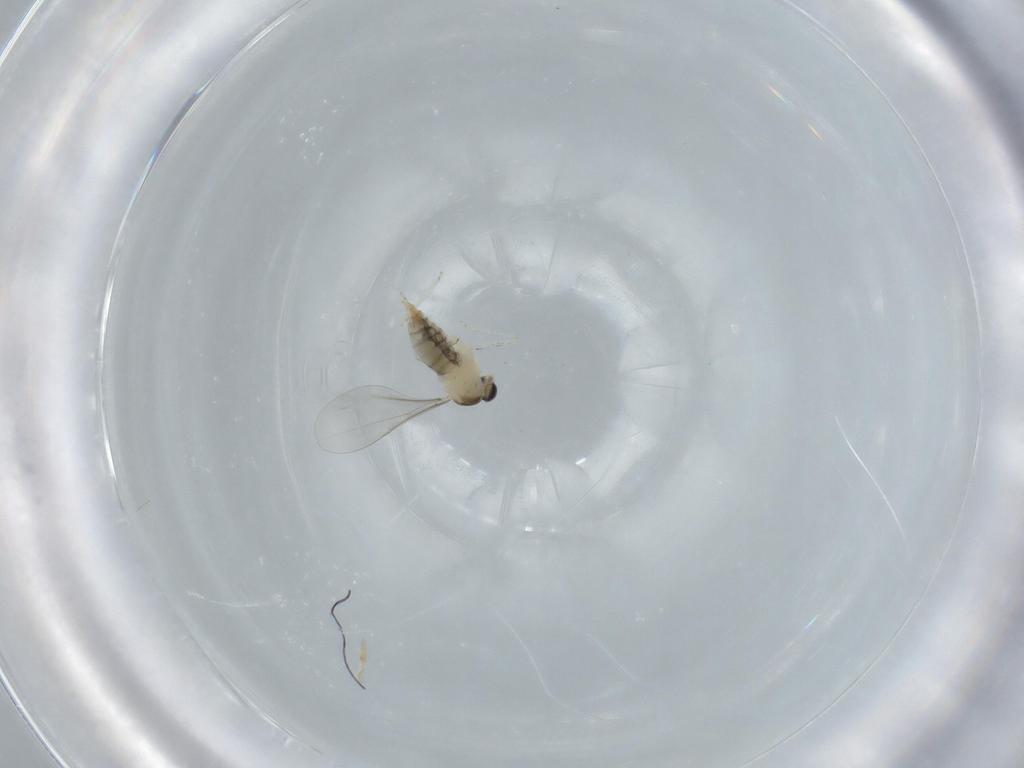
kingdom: Animalia
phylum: Arthropoda
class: Insecta
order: Diptera
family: Sciaridae
